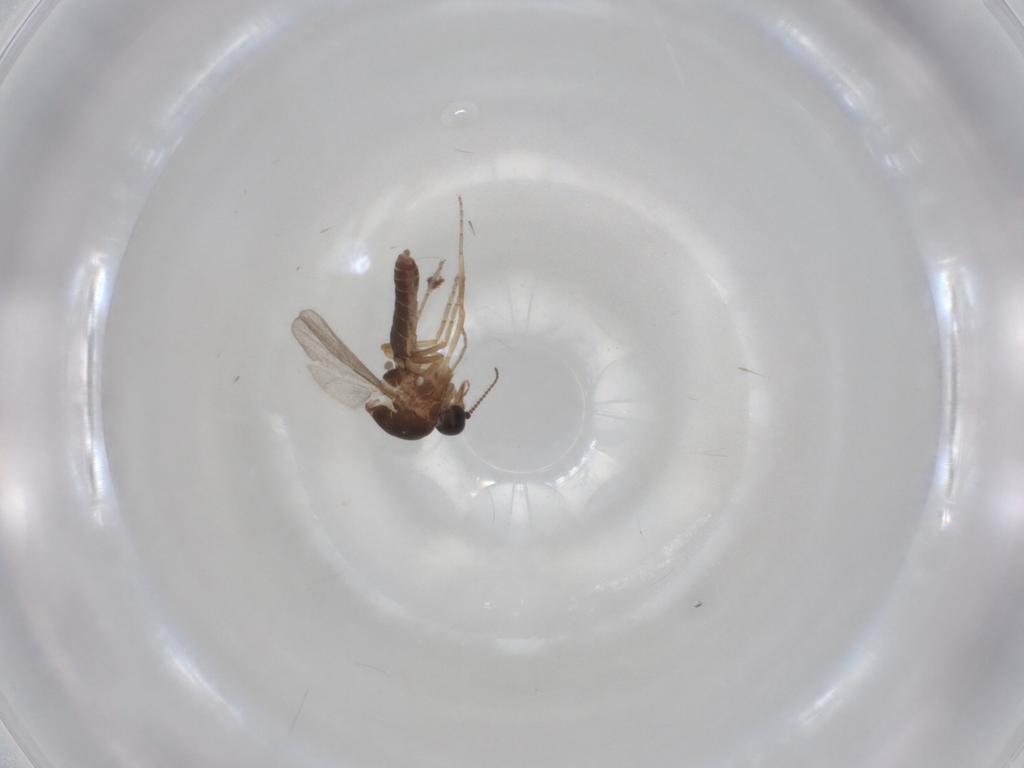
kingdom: Animalia
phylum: Arthropoda
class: Insecta
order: Diptera
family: Ceratopogonidae
